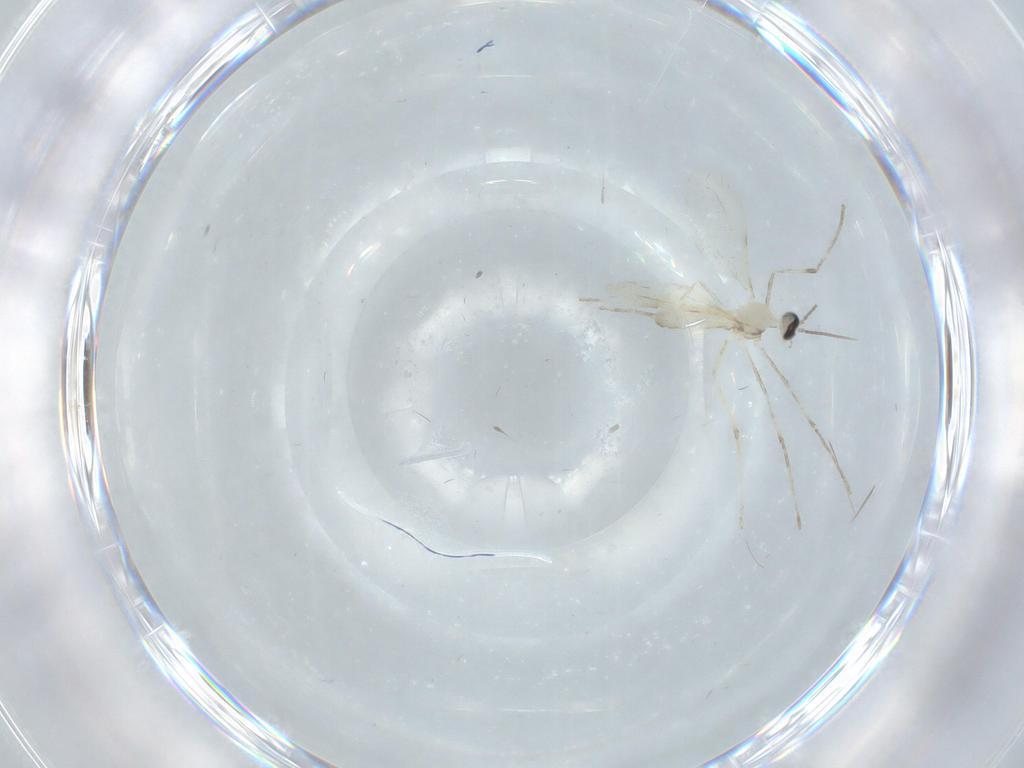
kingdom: Animalia
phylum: Arthropoda
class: Insecta
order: Diptera
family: Cecidomyiidae
